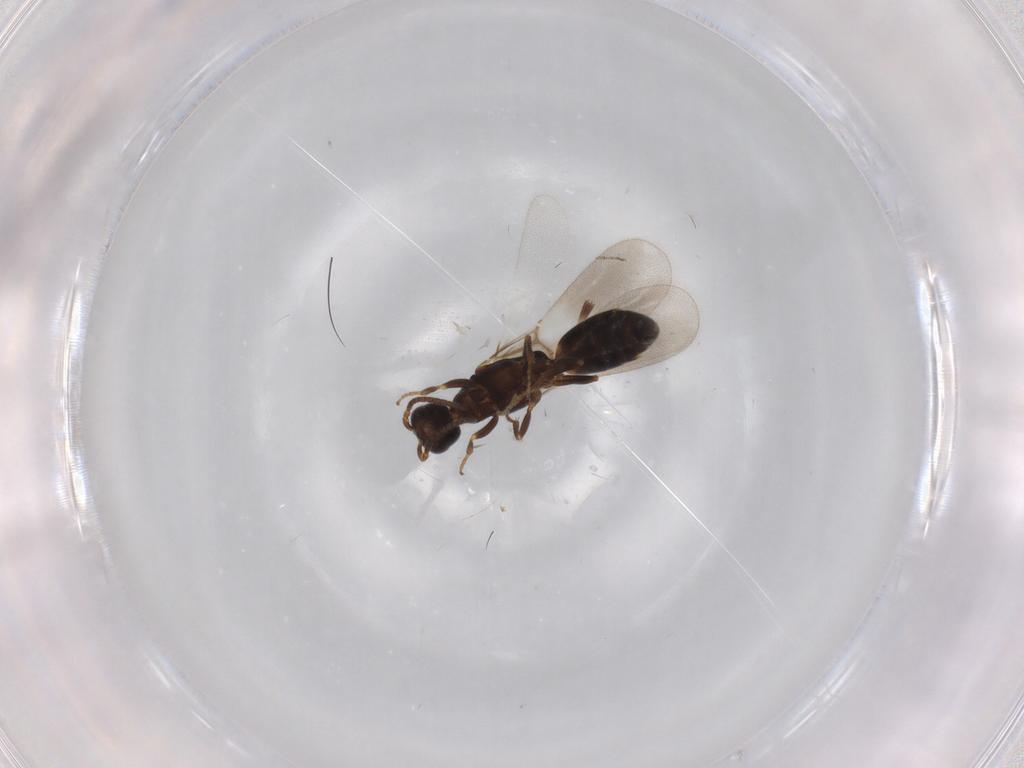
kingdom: Animalia
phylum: Arthropoda
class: Insecta
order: Hymenoptera
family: Bethylidae
